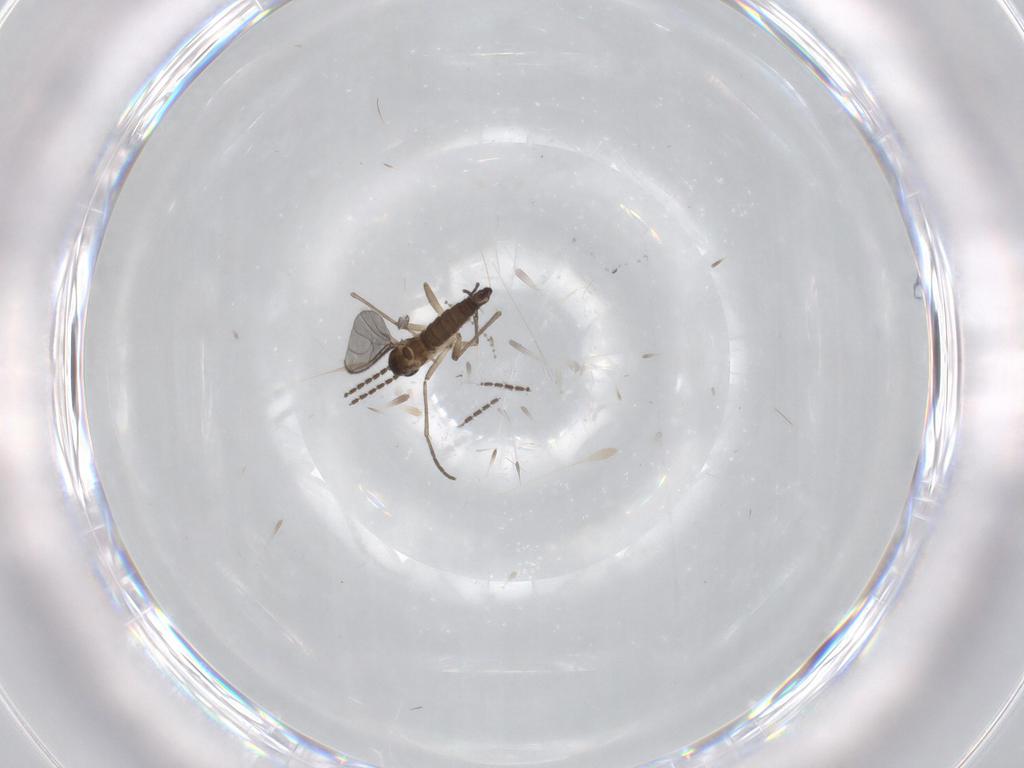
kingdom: Animalia
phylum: Arthropoda
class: Insecta
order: Diptera
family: Sciaridae
